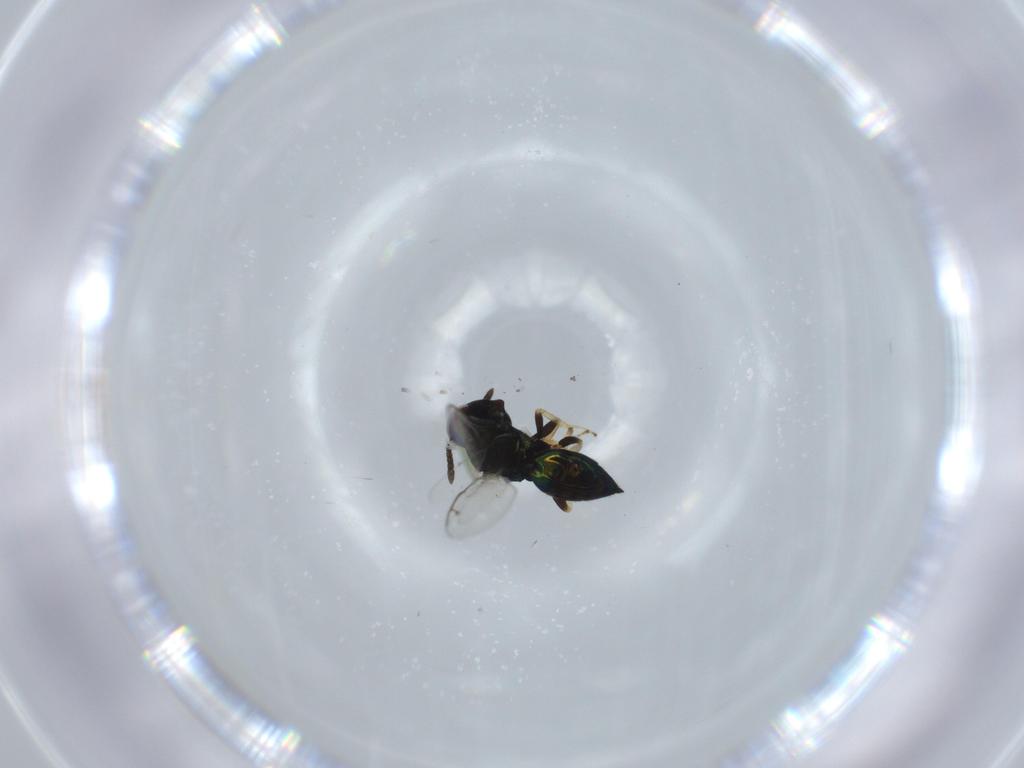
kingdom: Animalia
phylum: Arthropoda
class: Insecta
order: Hymenoptera
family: Pteromalidae
